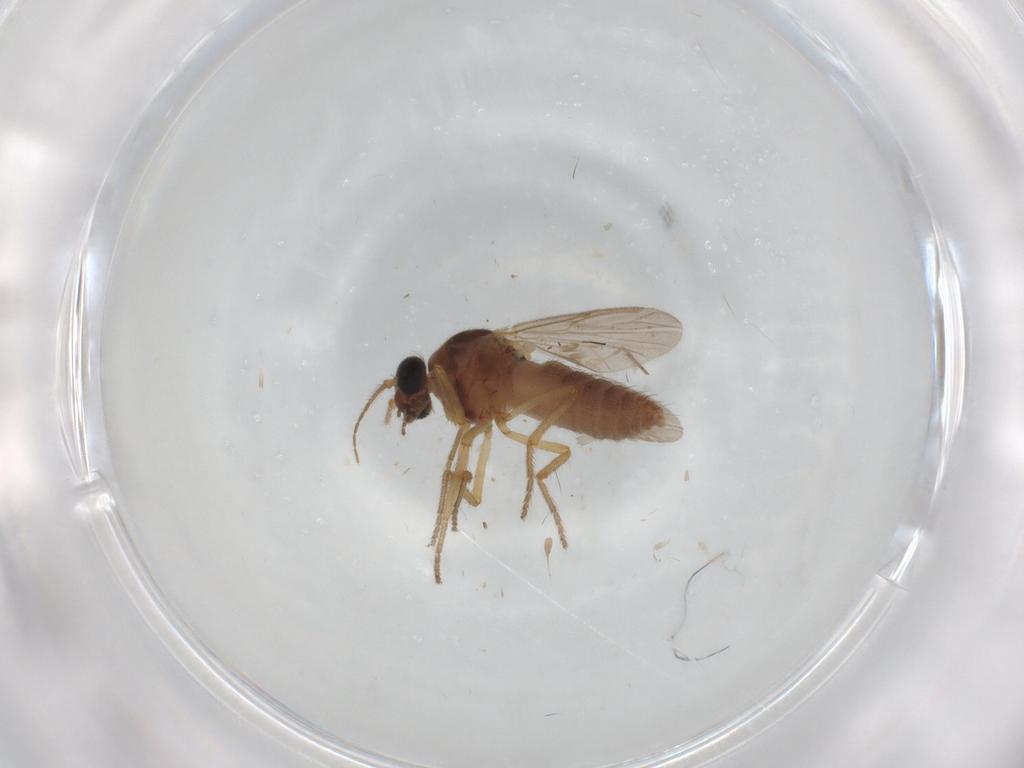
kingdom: Animalia
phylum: Arthropoda
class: Insecta
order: Diptera
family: Ceratopogonidae
